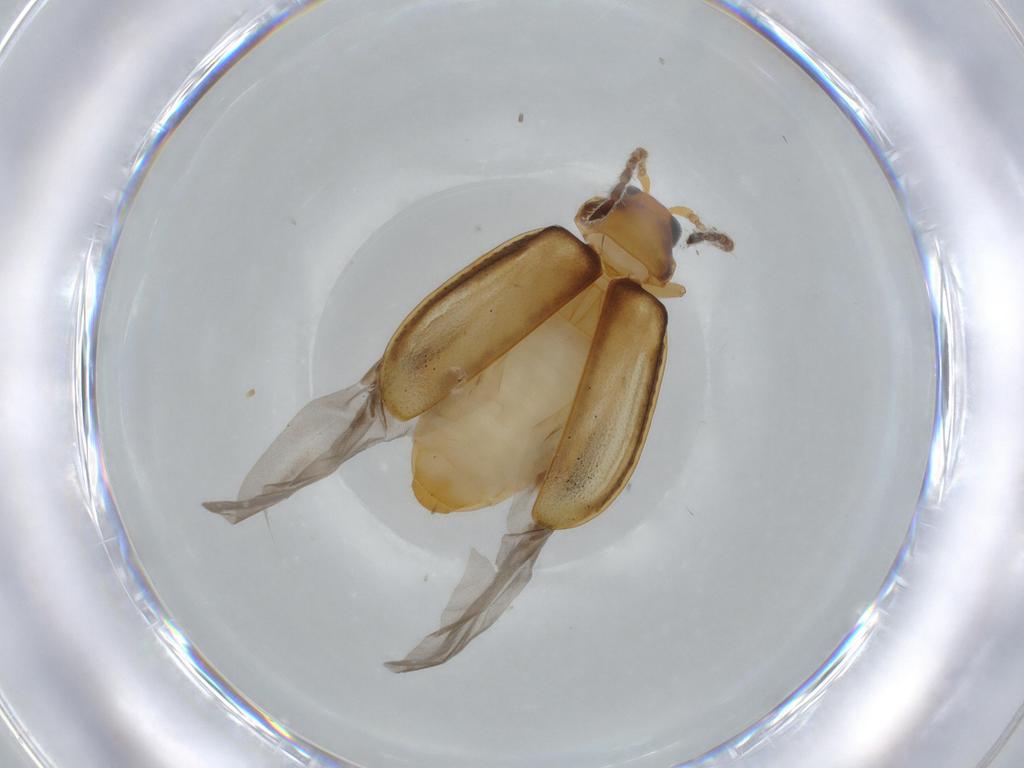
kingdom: Animalia
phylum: Arthropoda
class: Insecta
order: Coleoptera
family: Chrysomelidae
